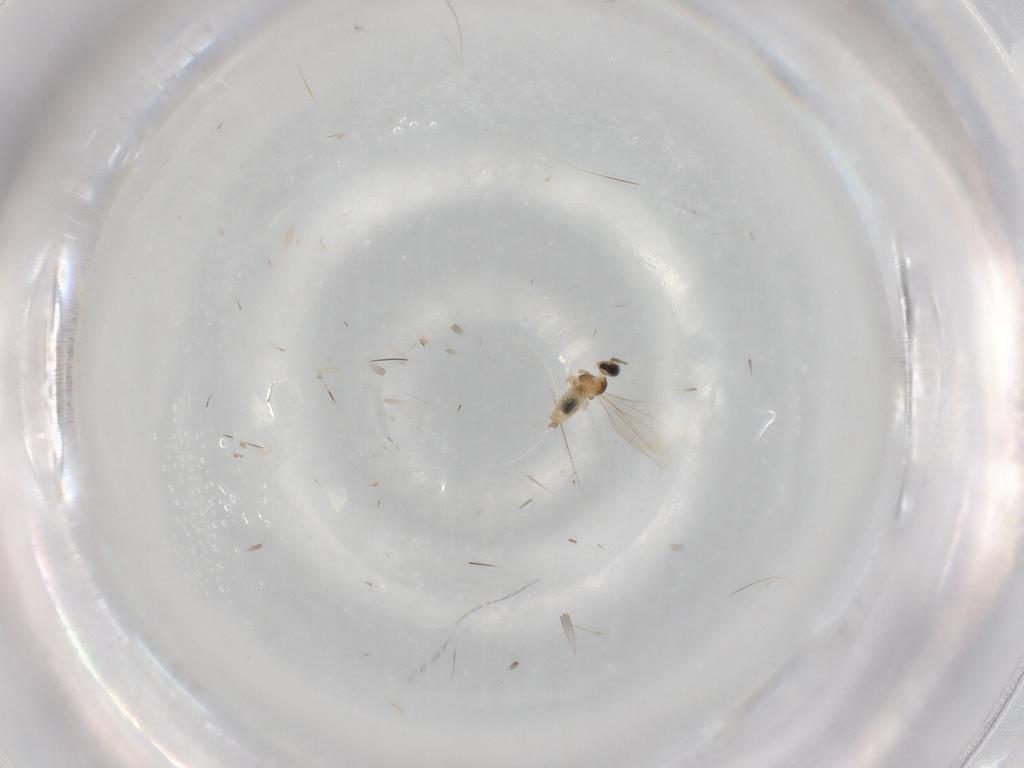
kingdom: Animalia
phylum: Arthropoda
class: Insecta
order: Diptera
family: Cecidomyiidae
